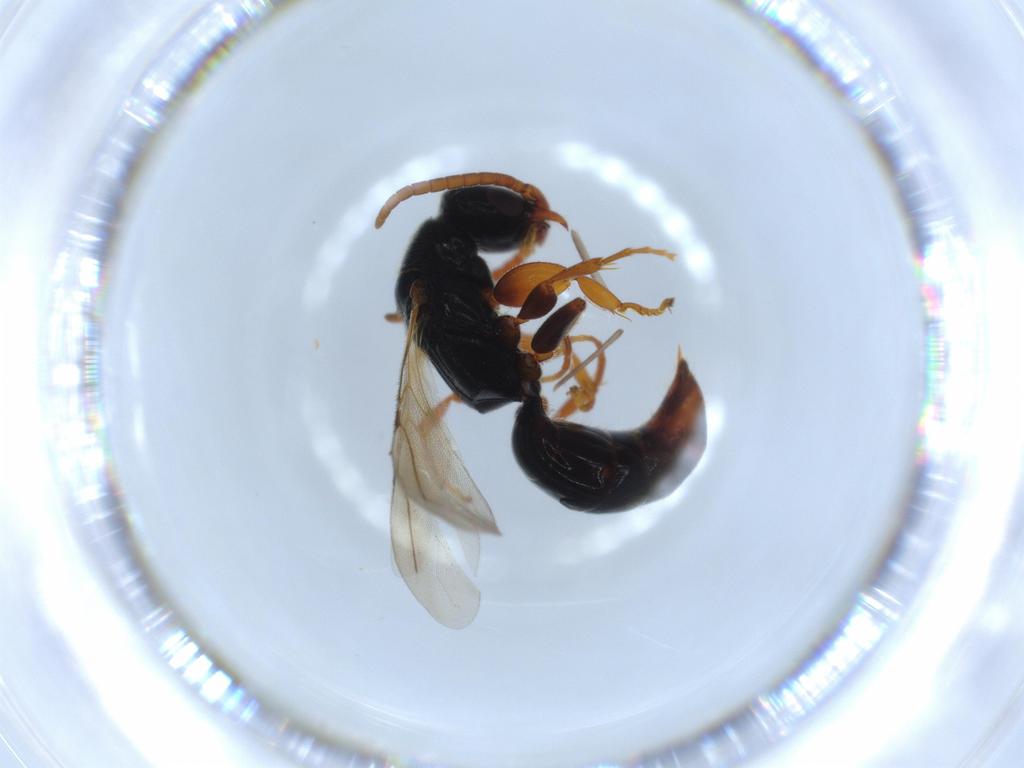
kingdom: Animalia
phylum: Arthropoda
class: Insecta
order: Hymenoptera
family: Bethylidae
